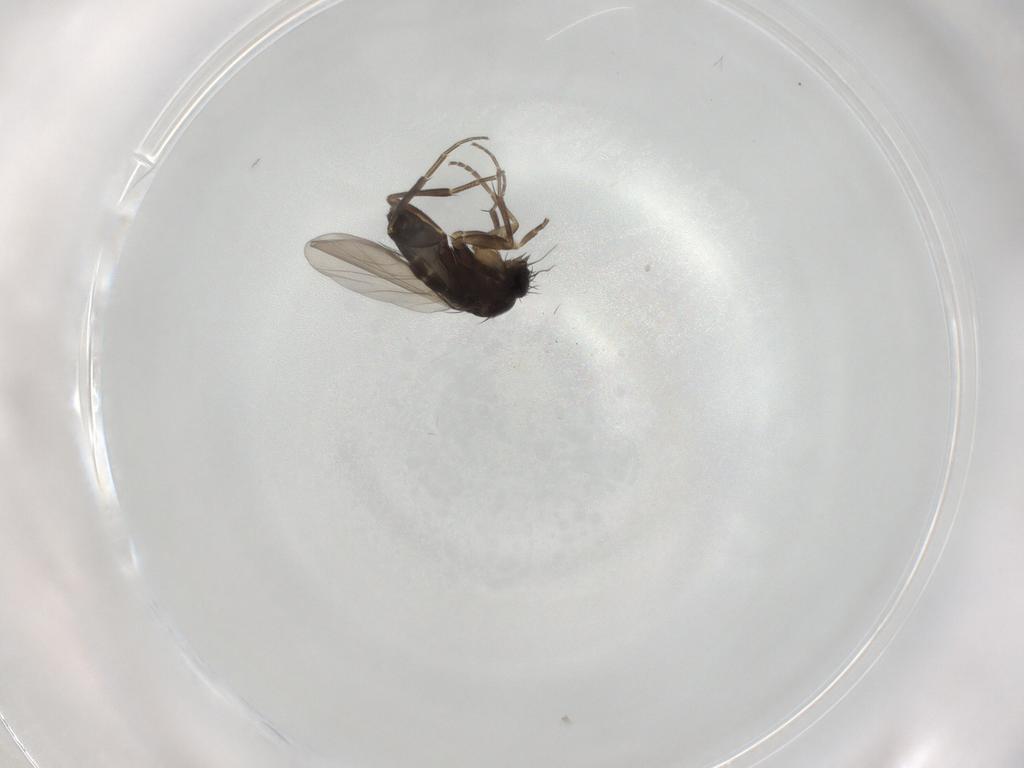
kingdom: Animalia
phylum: Arthropoda
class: Insecta
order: Diptera
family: Phoridae
